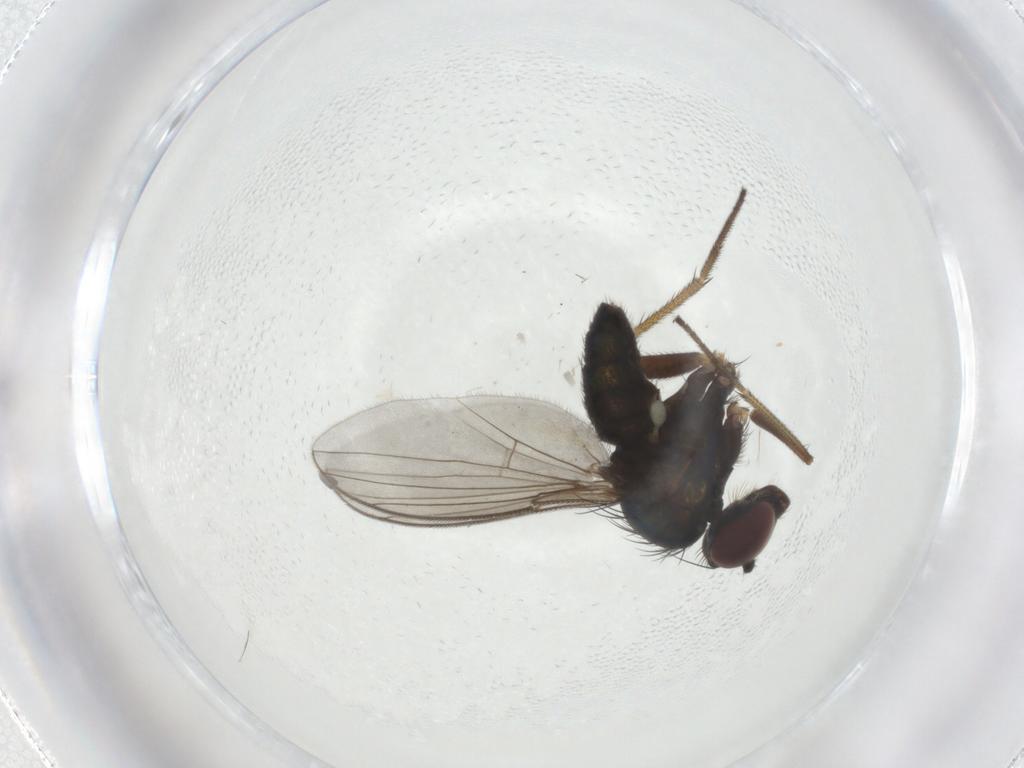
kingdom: Animalia
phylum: Arthropoda
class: Insecta
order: Diptera
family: Dolichopodidae
